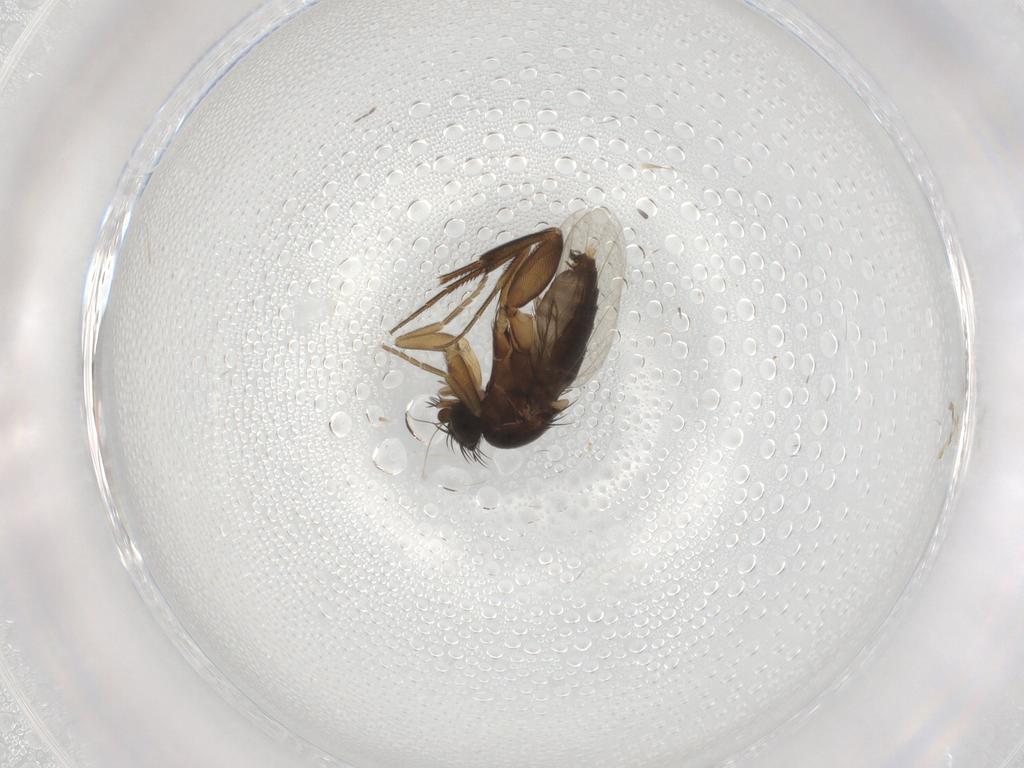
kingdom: Animalia
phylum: Arthropoda
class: Insecta
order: Diptera
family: Phoridae
